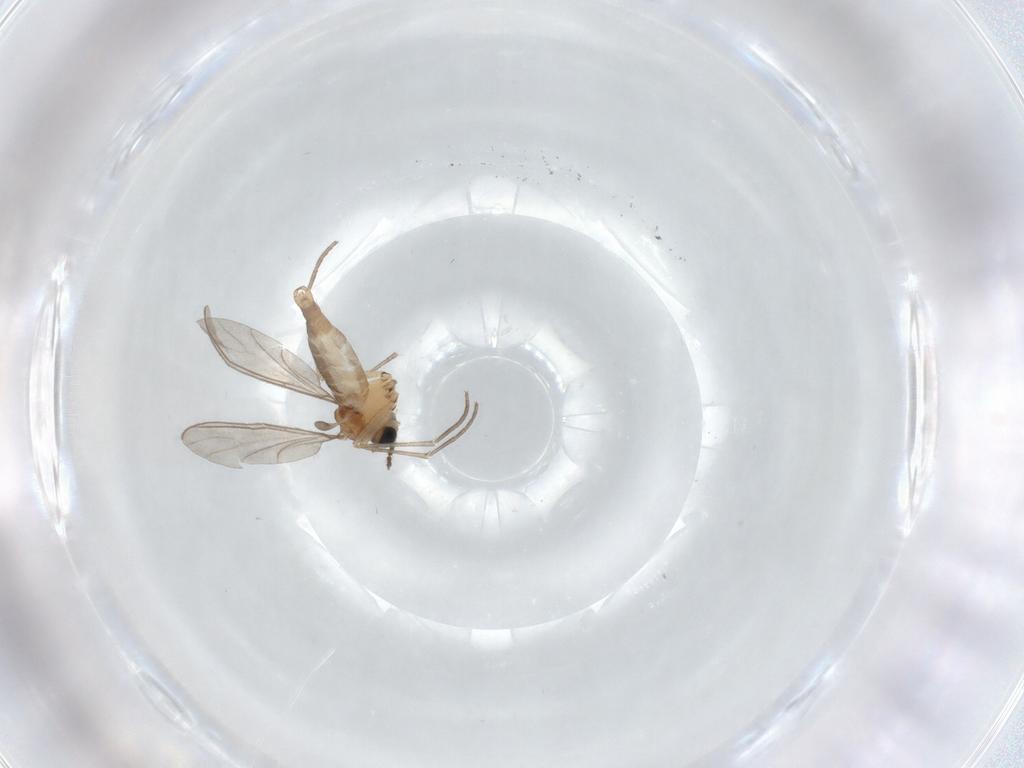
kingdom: Animalia
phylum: Arthropoda
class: Insecta
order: Diptera
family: Sciaridae
